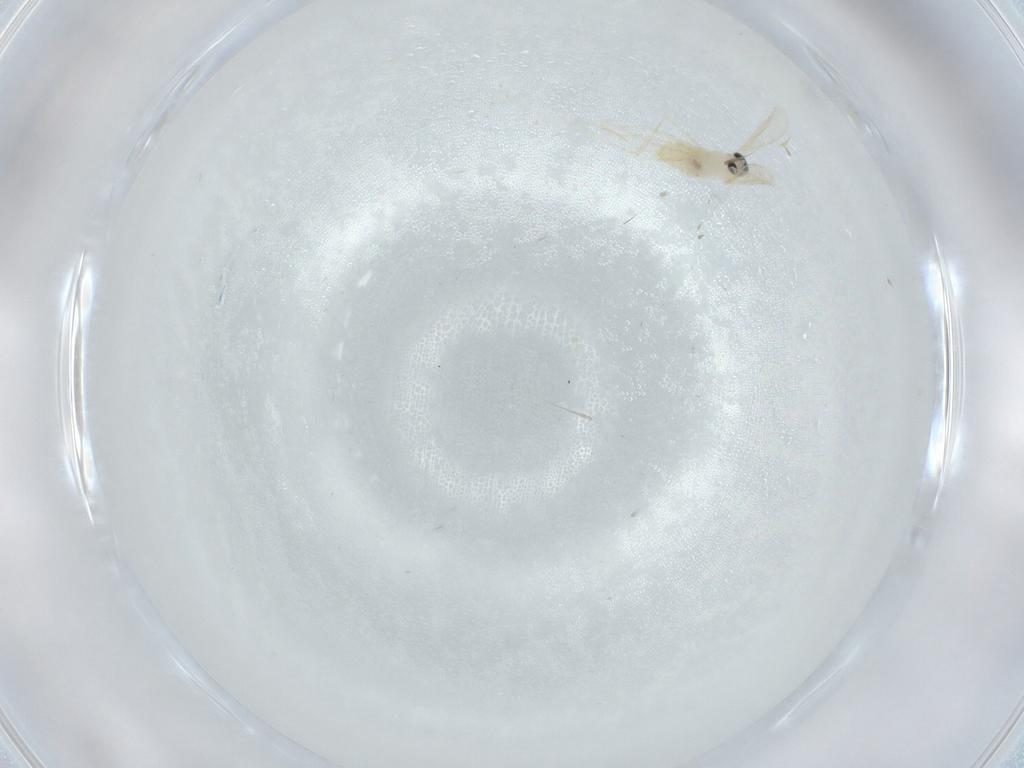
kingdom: Animalia
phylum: Arthropoda
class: Insecta
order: Diptera
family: Cecidomyiidae
